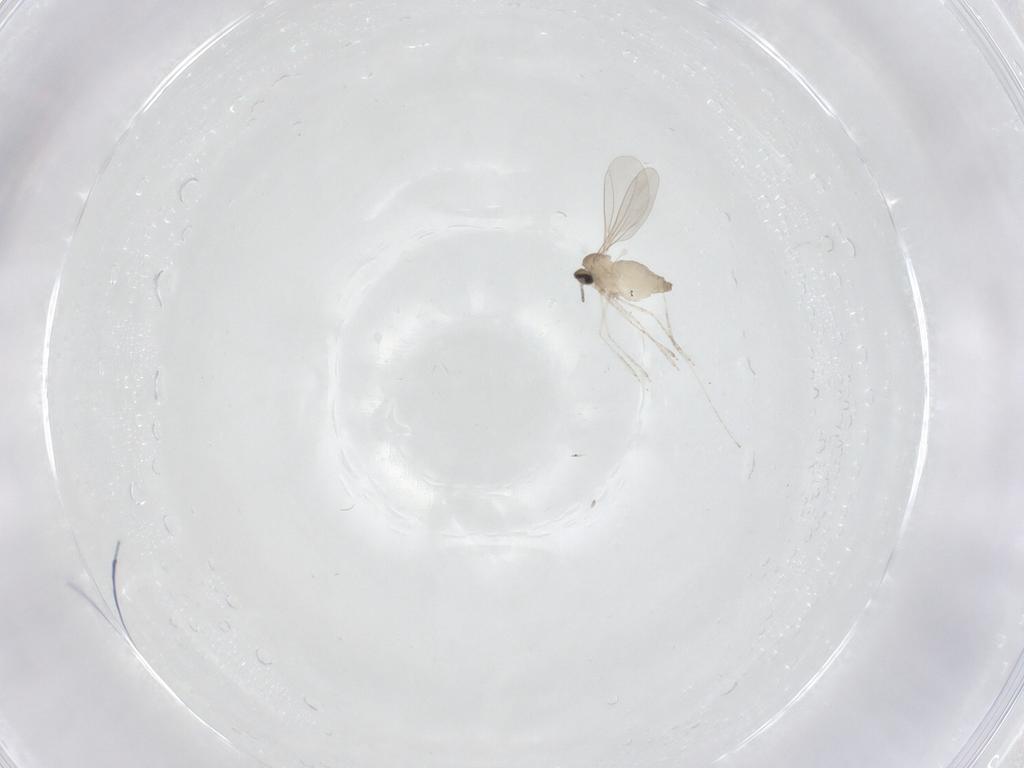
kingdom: Animalia
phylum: Arthropoda
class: Insecta
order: Diptera
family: Cecidomyiidae
